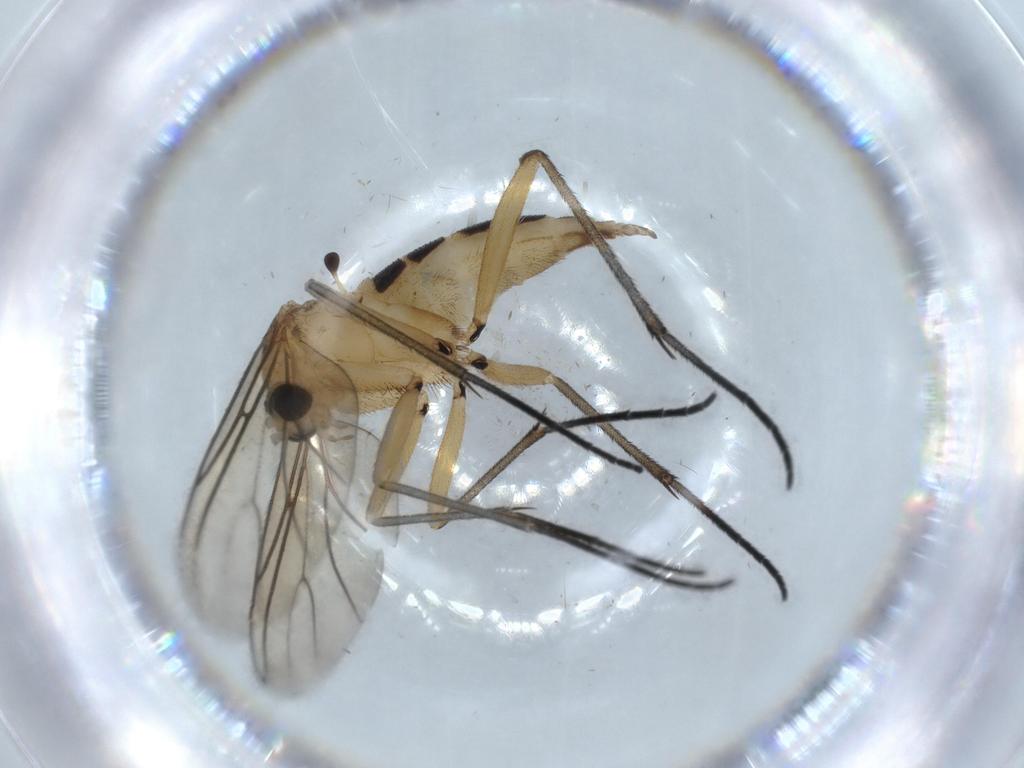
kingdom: Animalia
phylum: Arthropoda
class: Insecta
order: Diptera
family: Sciaridae
